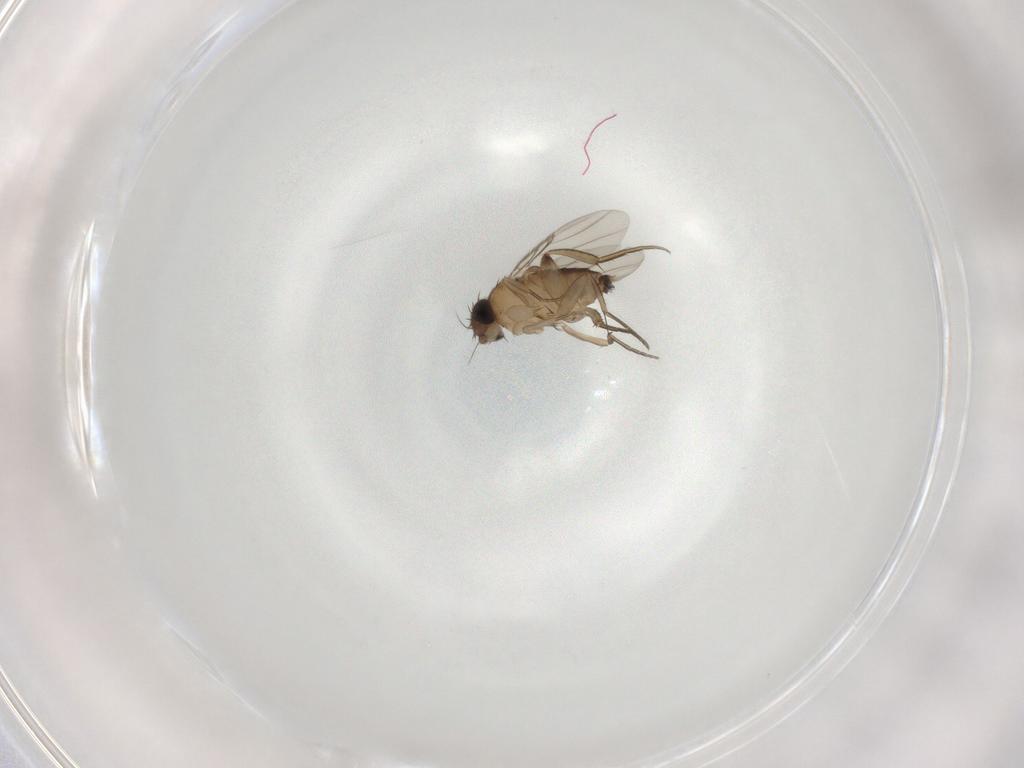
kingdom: Animalia
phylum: Arthropoda
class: Insecta
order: Diptera
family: Phoridae
